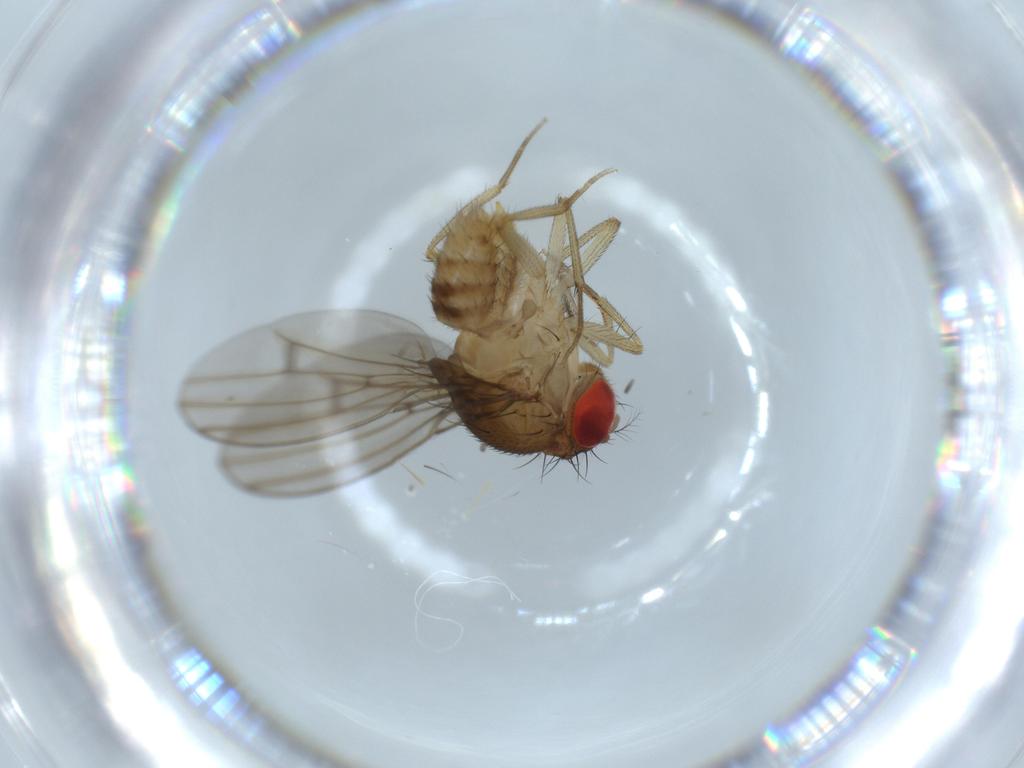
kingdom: Animalia
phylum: Arthropoda
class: Insecta
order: Diptera
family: Drosophilidae
